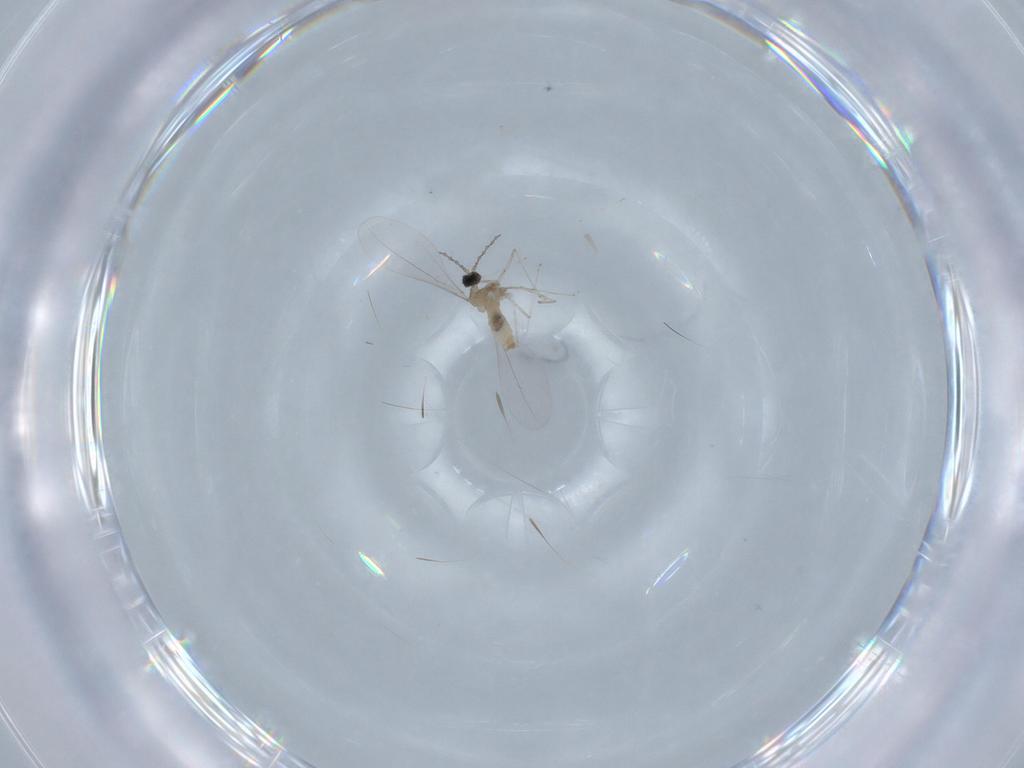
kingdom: Animalia
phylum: Arthropoda
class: Insecta
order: Diptera
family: Cecidomyiidae
